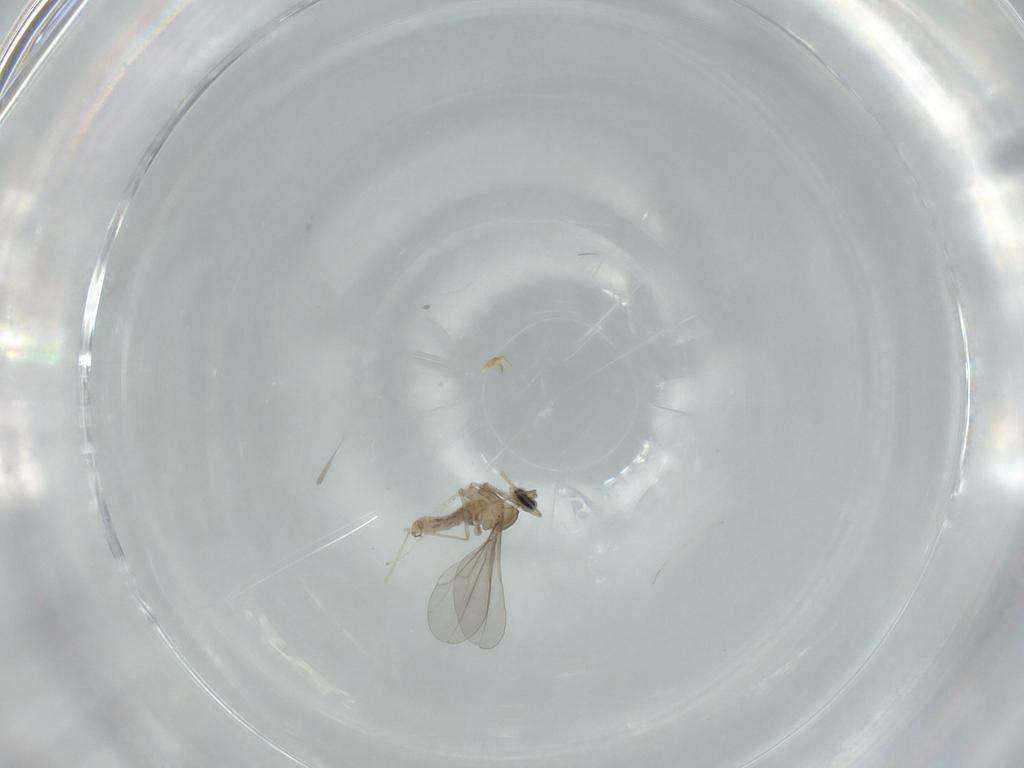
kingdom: Animalia
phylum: Arthropoda
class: Insecta
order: Diptera
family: Cecidomyiidae
